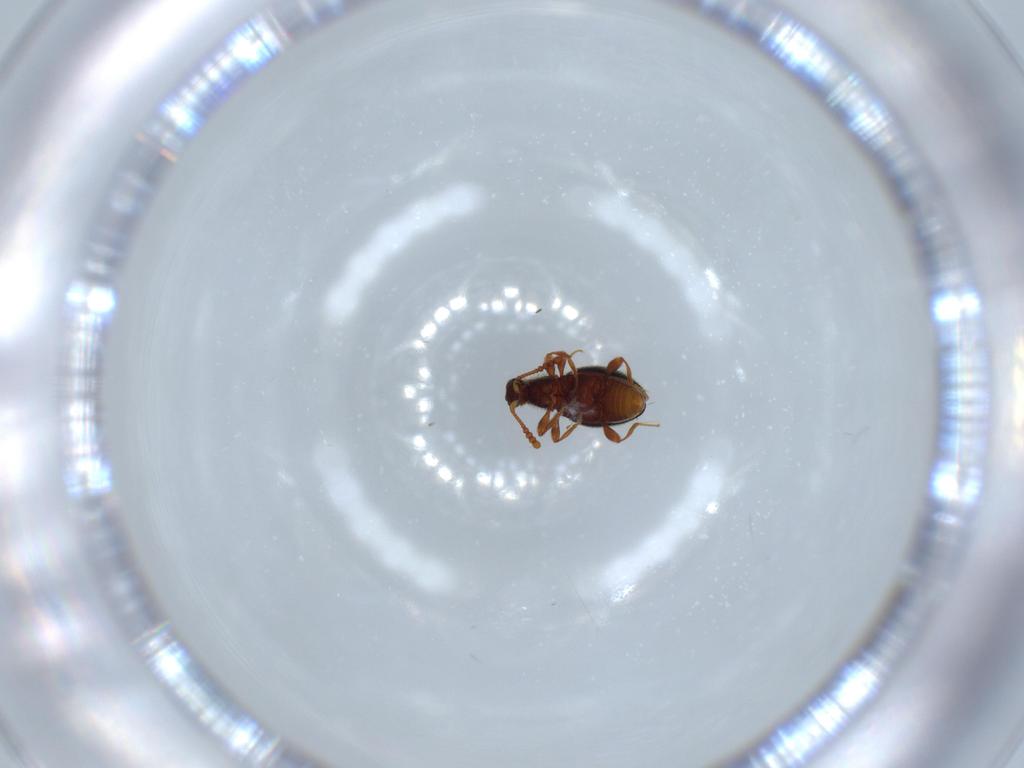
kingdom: Animalia
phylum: Arthropoda
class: Insecta
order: Coleoptera
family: Staphylinidae
